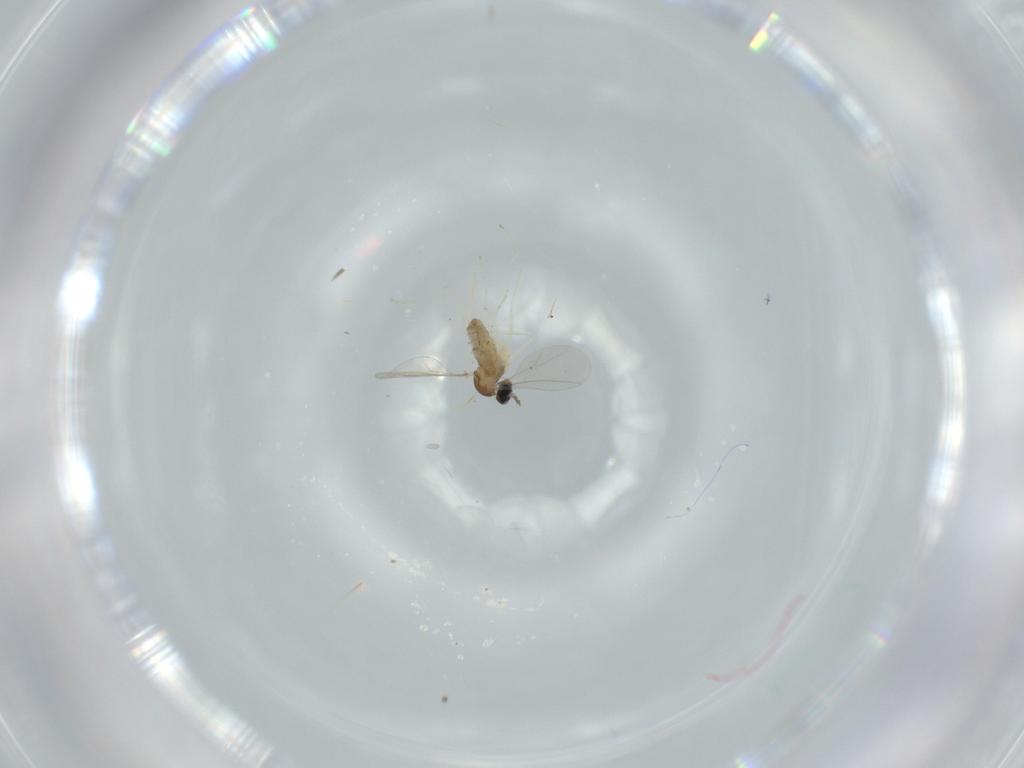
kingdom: Animalia
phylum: Arthropoda
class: Insecta
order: Diptera
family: Cecidomyiidae
